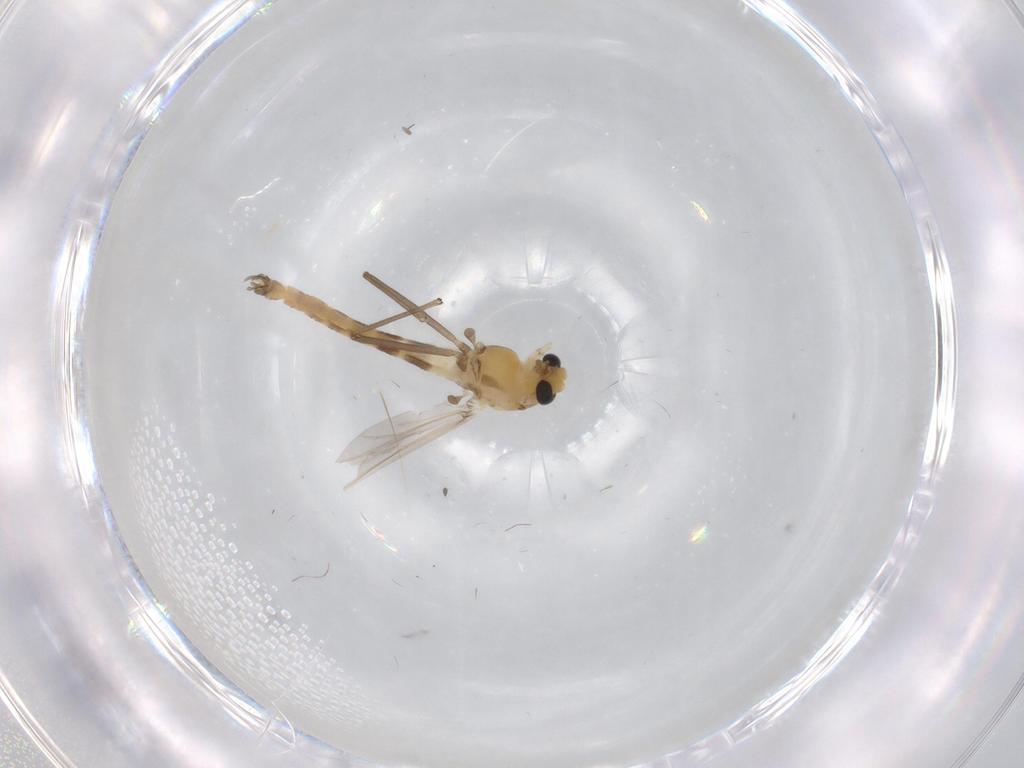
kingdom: Animalia
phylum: Arthropoda
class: Insecta
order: Diptera
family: Chironomidae
